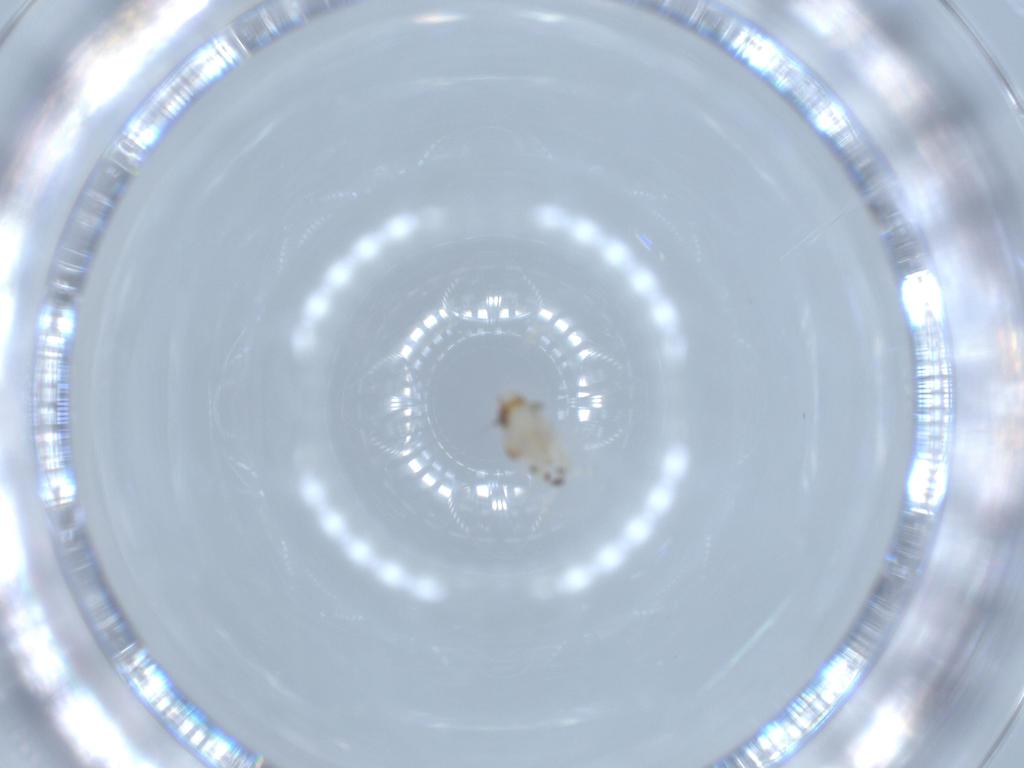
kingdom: Animalia
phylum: Arthropoda
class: Insecta
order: Hemiptera
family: Nogodinidae
